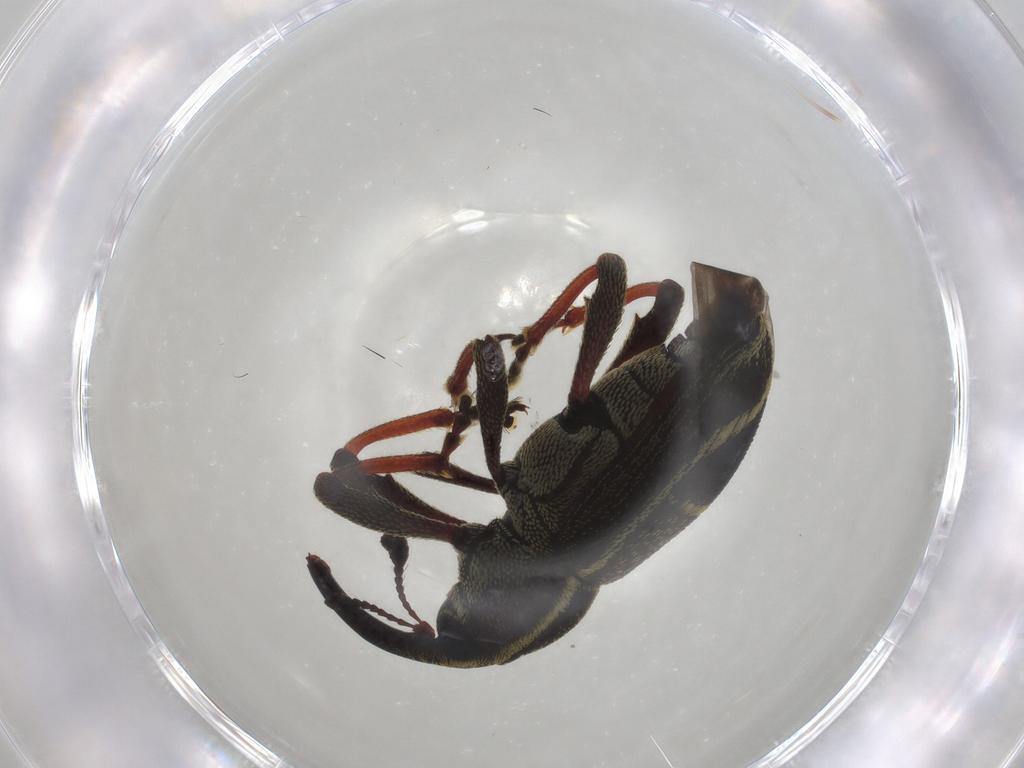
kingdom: Animalia
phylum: Arthropoda
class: Insecta
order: Coleoptera
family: Curculionidae
